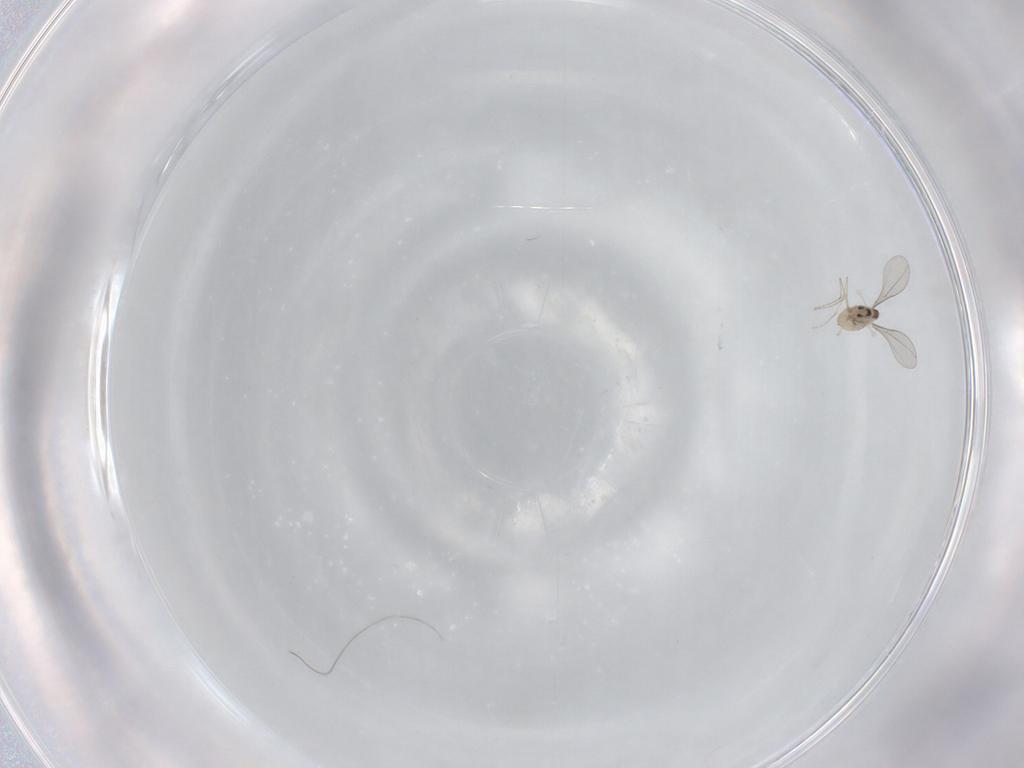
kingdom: Animalia
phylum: Arthropoda
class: Insecta
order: Diptera
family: Cecidomyiidae
